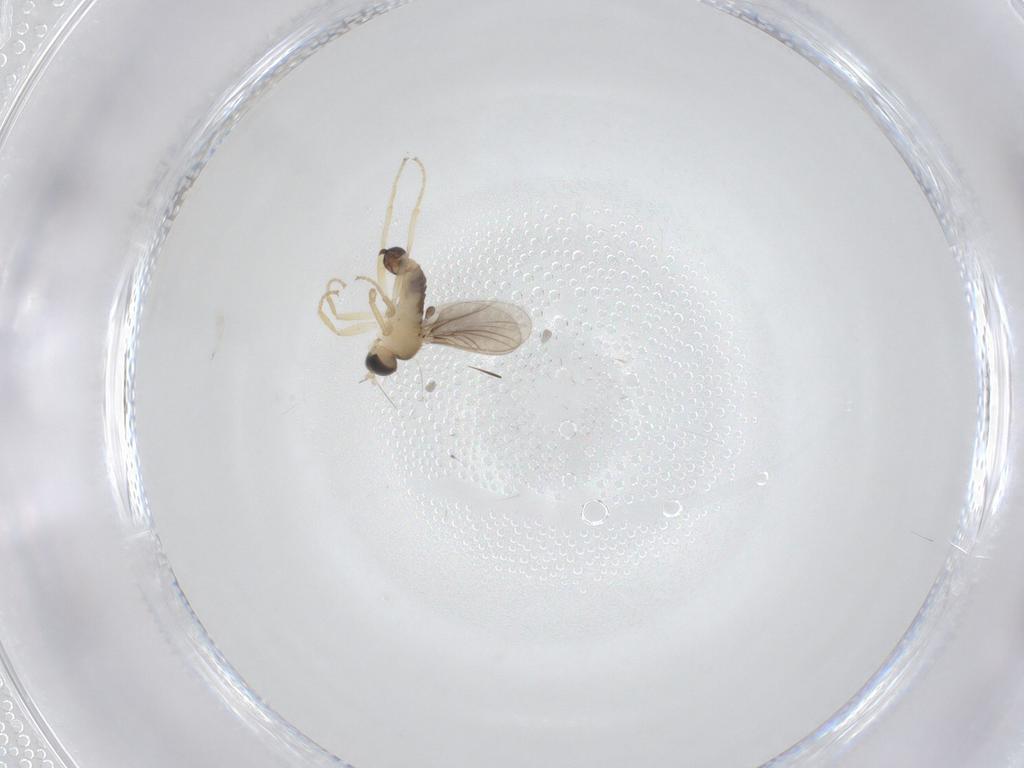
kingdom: Animalia
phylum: Arthropoda
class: Insecta
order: Diptera
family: Hybotidae
